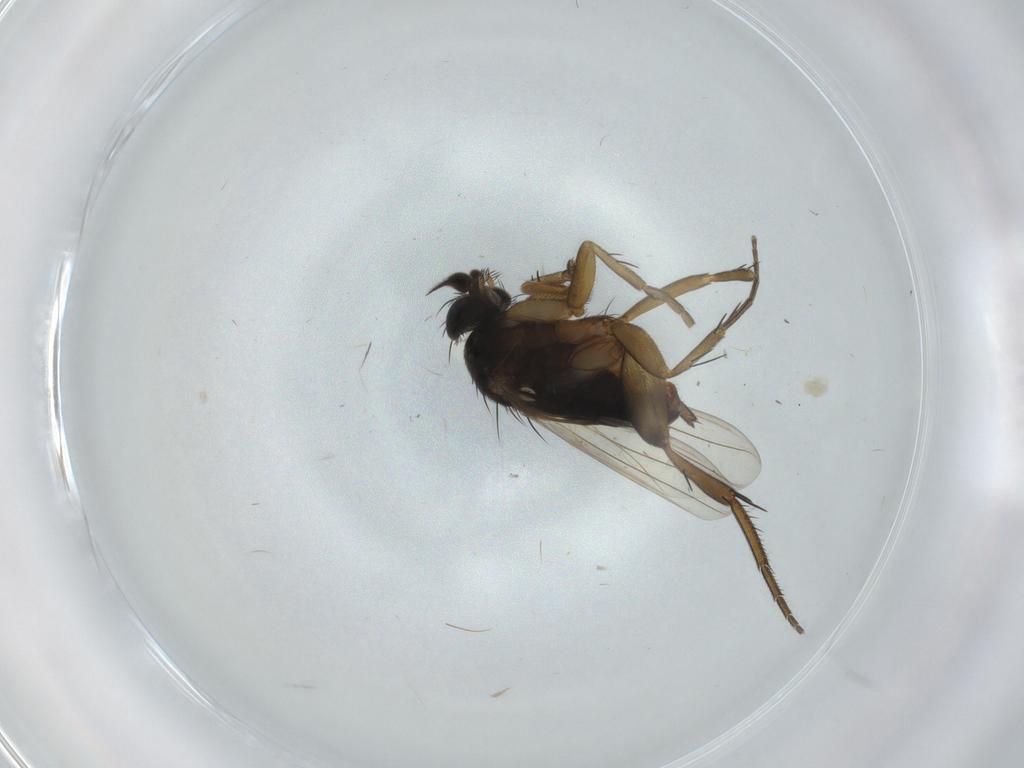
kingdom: Animalia
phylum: Arthropoda
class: Insecta
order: Diptera
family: Phoridae
